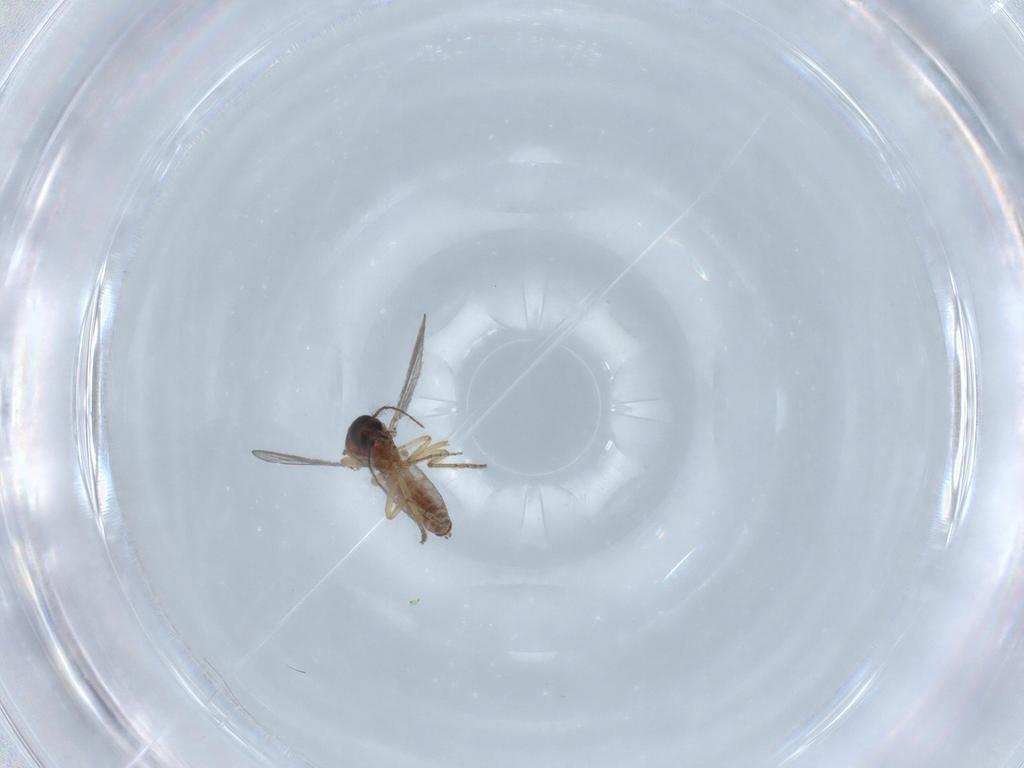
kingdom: Animalia
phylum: Arthropoda
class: Insecta
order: Diptera
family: Ceratopogonidae
